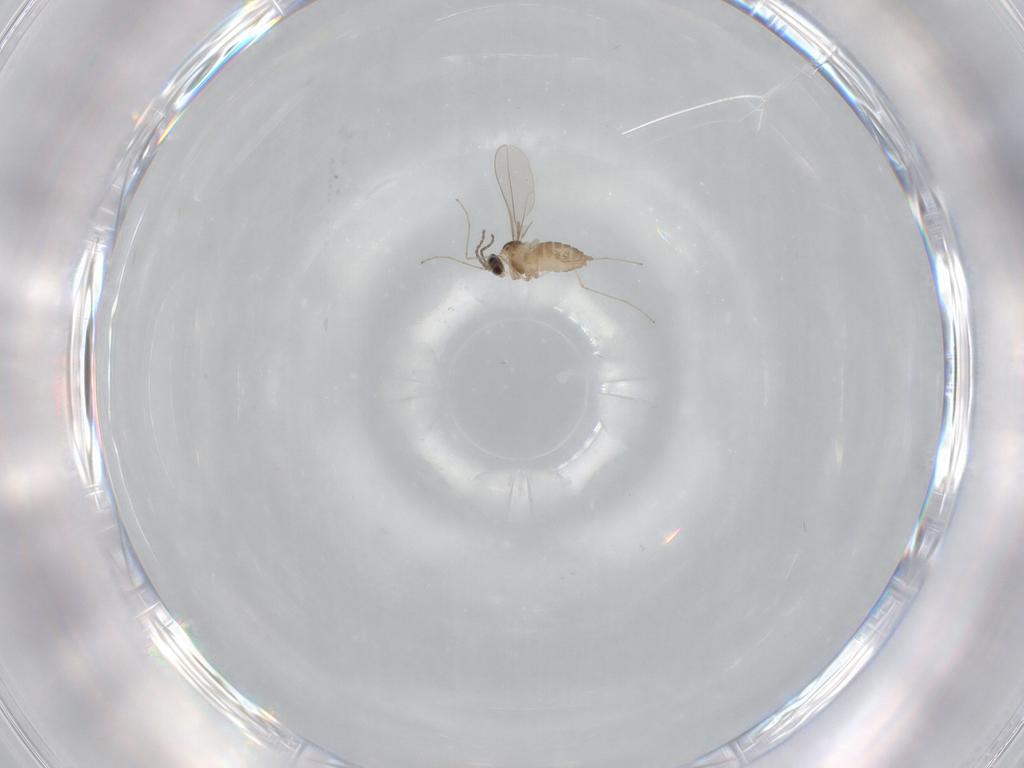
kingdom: Animalia
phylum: Arthropoda
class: Insecta
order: Diptera
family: Cecidomyiidae
